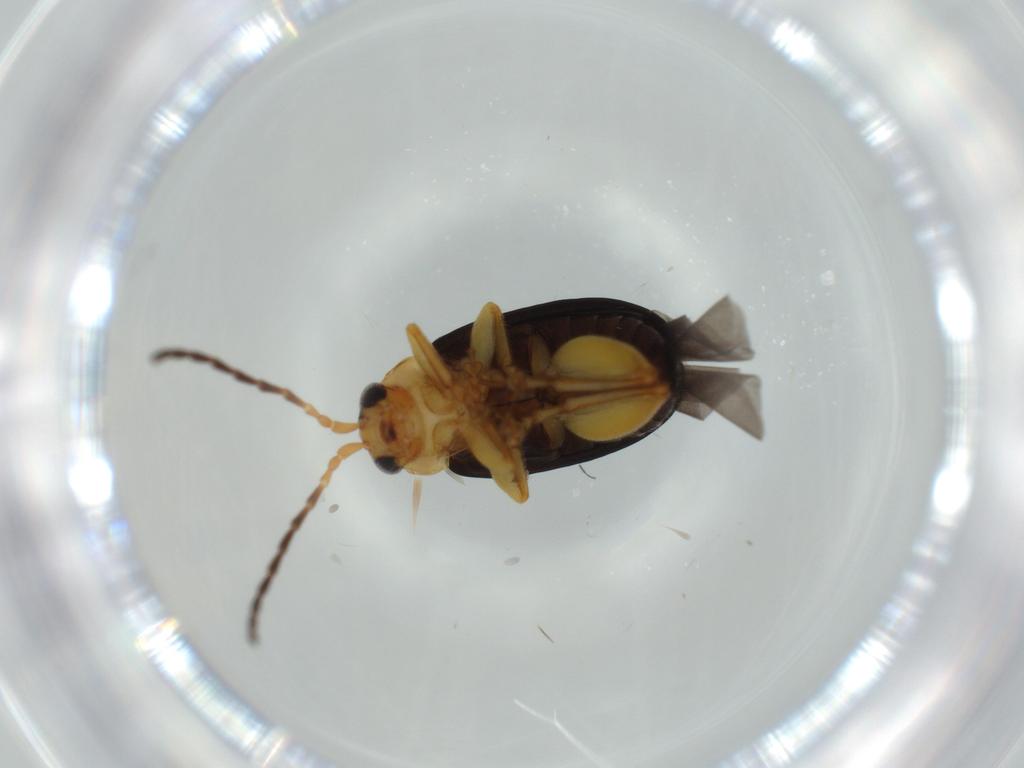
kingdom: Animalia
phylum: Arthropoda
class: Insecta
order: Coleoptera
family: Chrysomelidae
